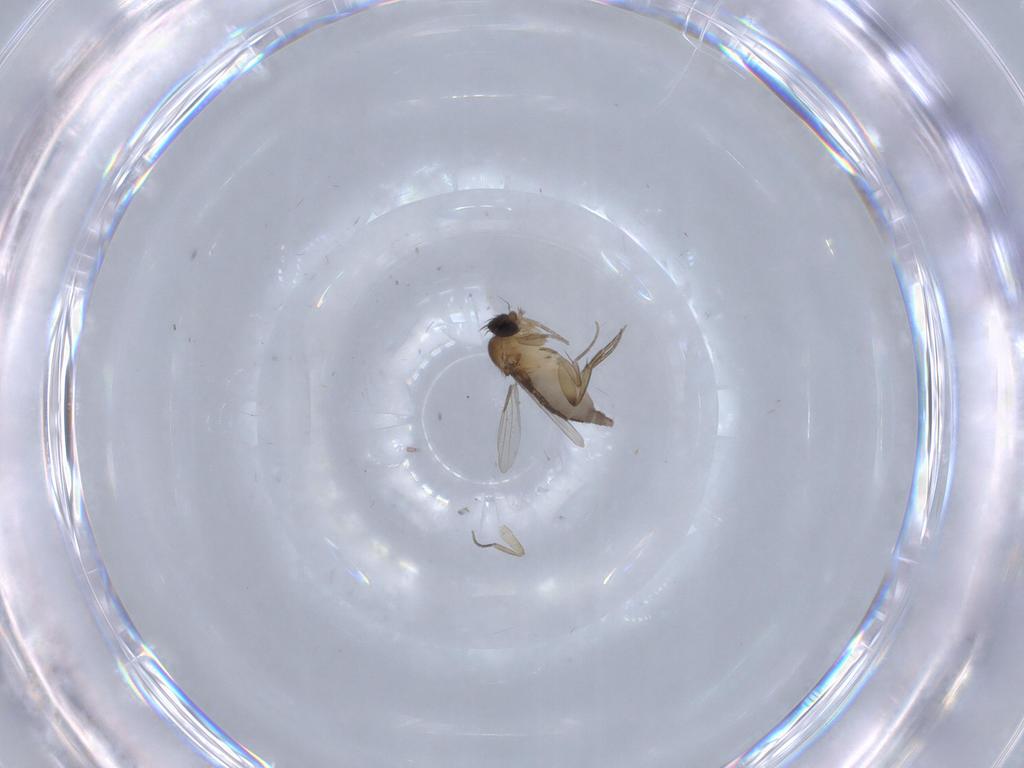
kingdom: Animalia
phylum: Arthropoda
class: Insecta
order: Diptera
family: Phoridae
